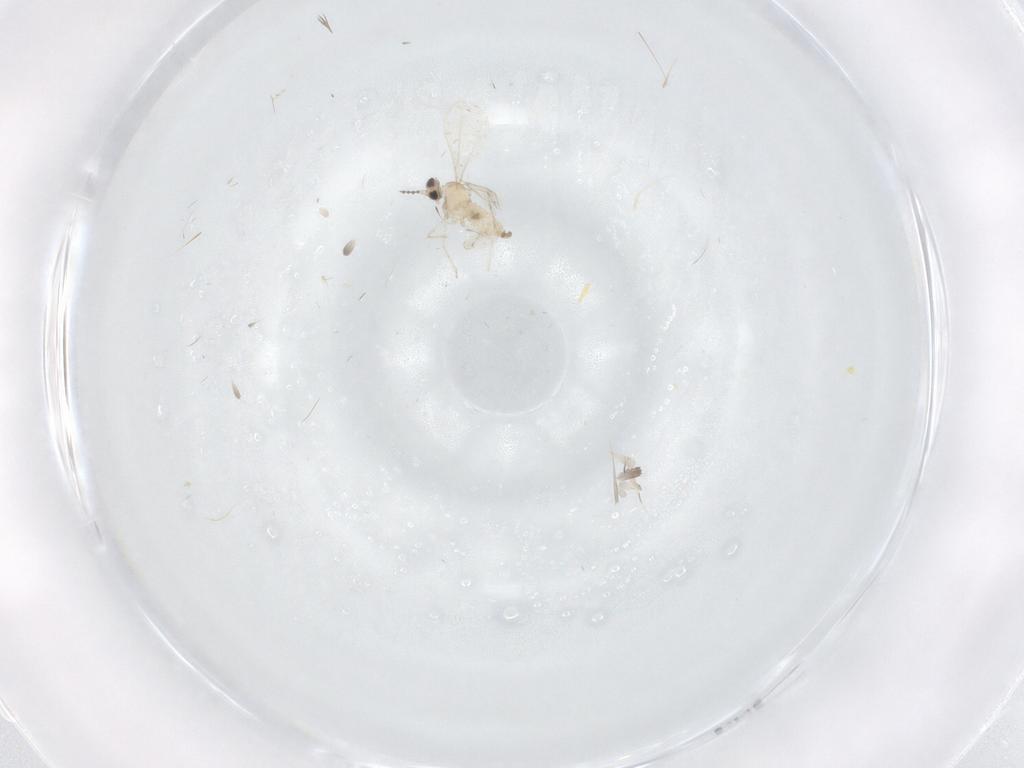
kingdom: Animalia
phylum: Arthropoda
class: Insecta
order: Diptera
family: Cecidomyiidae
